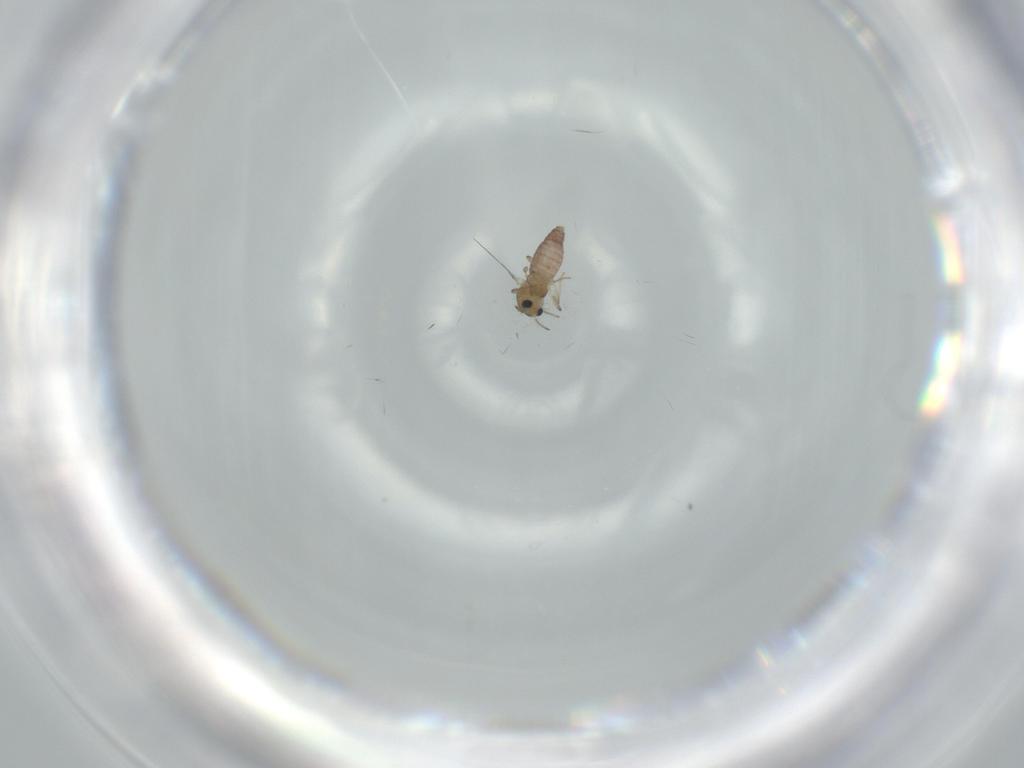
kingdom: Animalia
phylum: Arthropoda
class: Insecta
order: Diptera
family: Chironomidae
